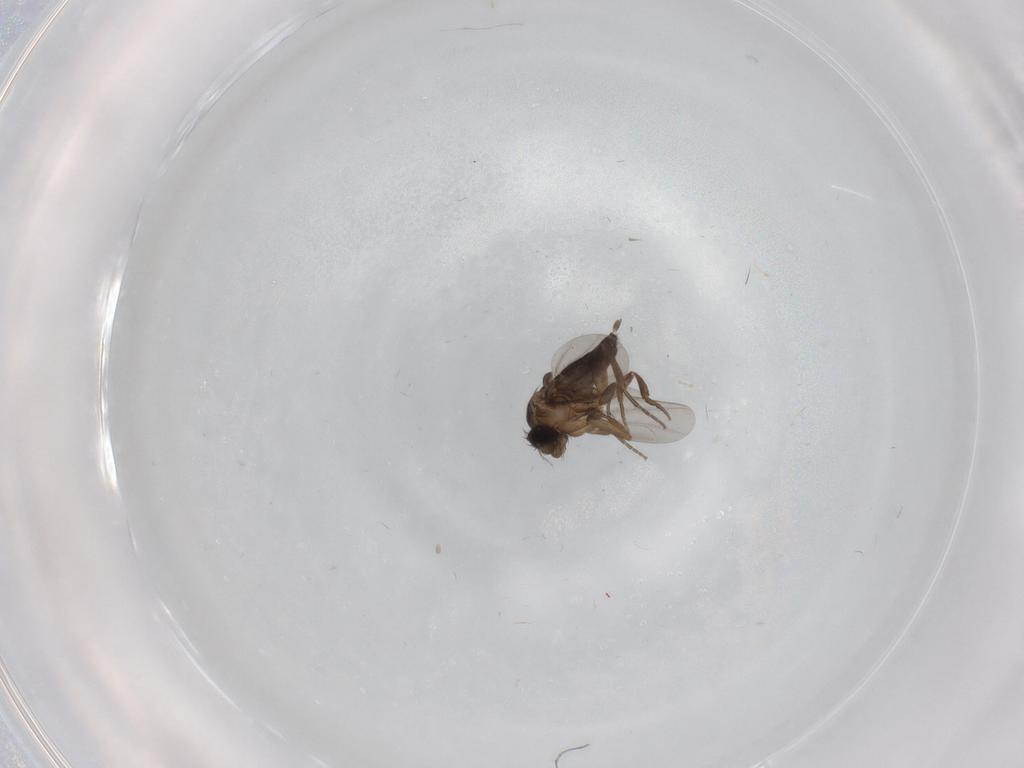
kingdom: Animalia
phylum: Arthropoda
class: Insecta
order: Diptera
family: Phoridae
